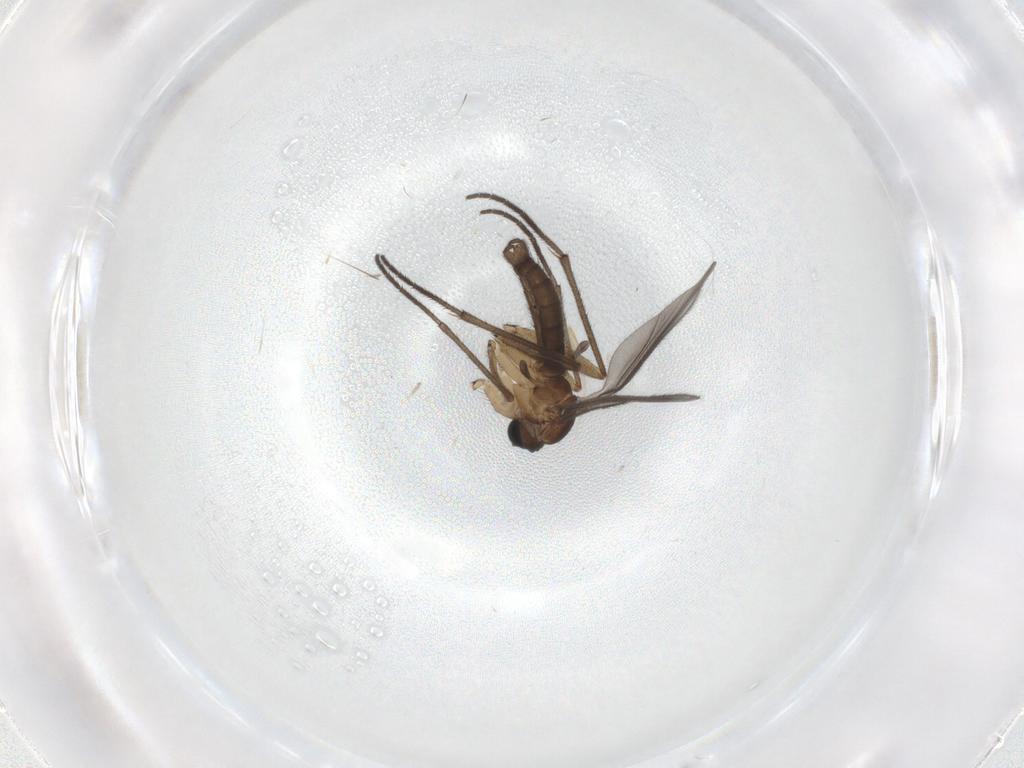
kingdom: Animalia
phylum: Arthropoda
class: Insecta
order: Diptera
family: Sciaridae
